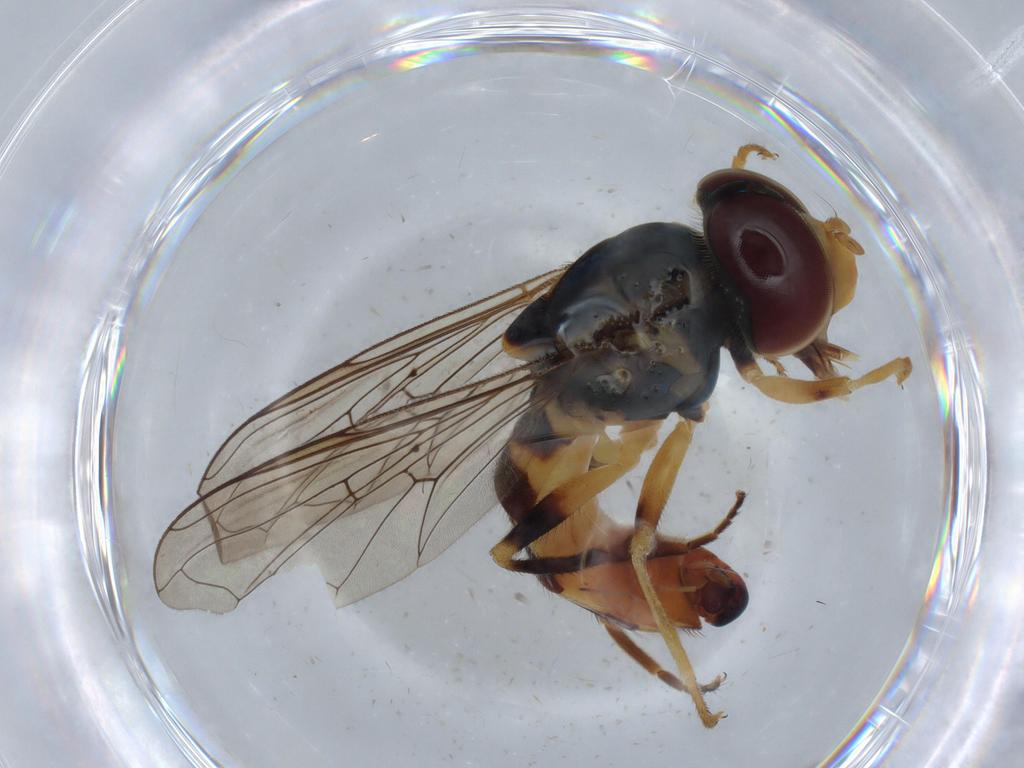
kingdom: Animalia
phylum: Arthropoda
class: Insecta
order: Diptera
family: Syrphidae
